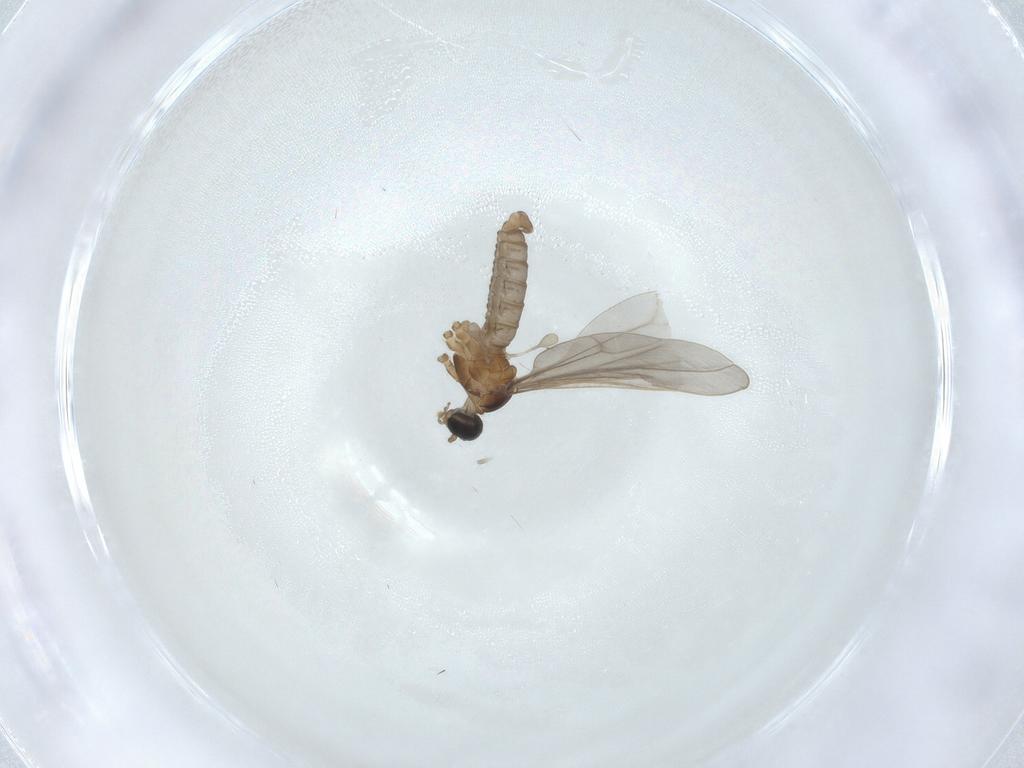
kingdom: Animalia
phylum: Arthropoda
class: Insecta
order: Diptera
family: Cecidomyiidae
